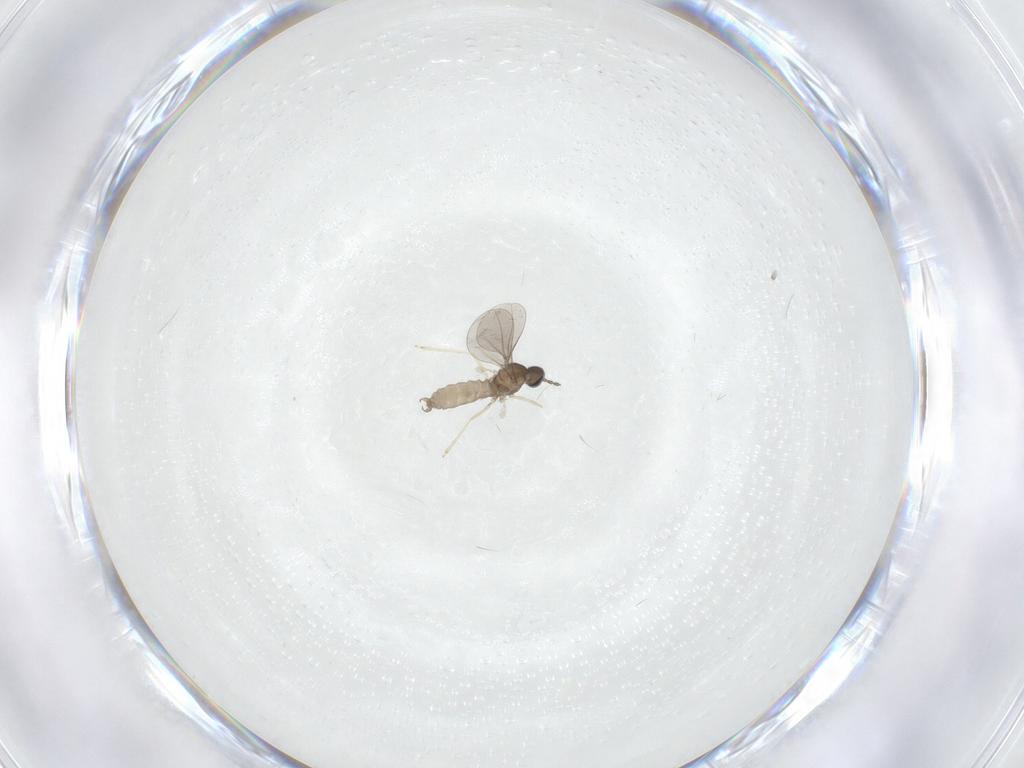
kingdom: Animalia
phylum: Arthropoda
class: Insecta
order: Diptera
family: Limoniidae
